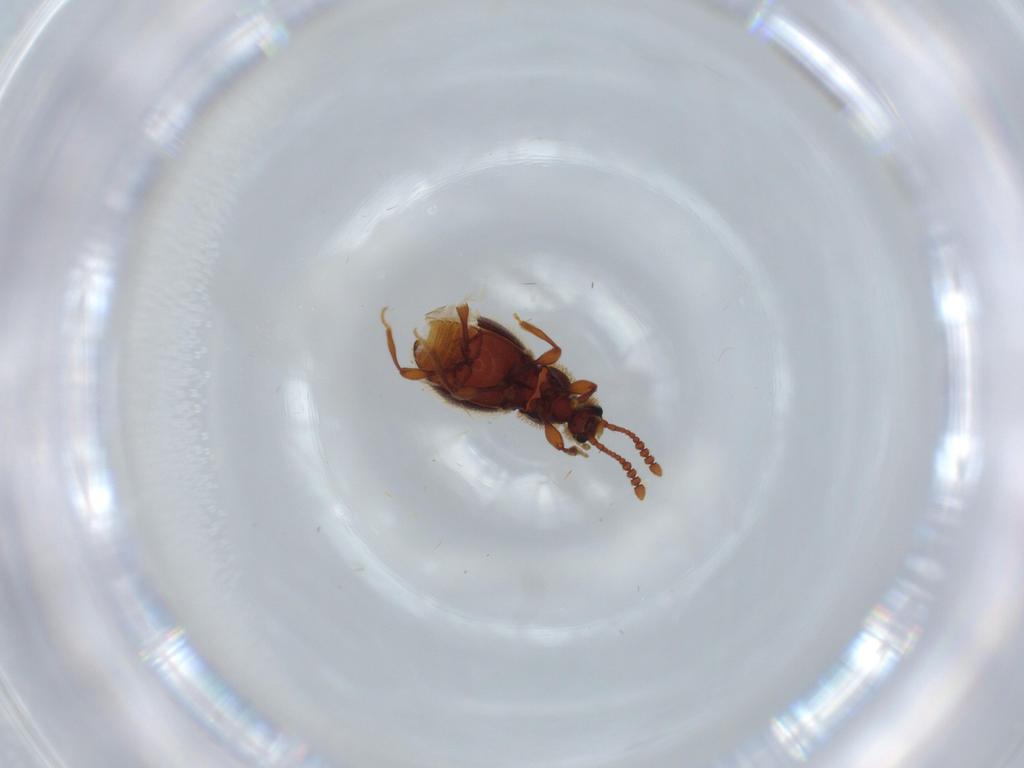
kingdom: Animalia
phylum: Arthropoda
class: Insecta
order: Coleoptera
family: Staphylinidae
